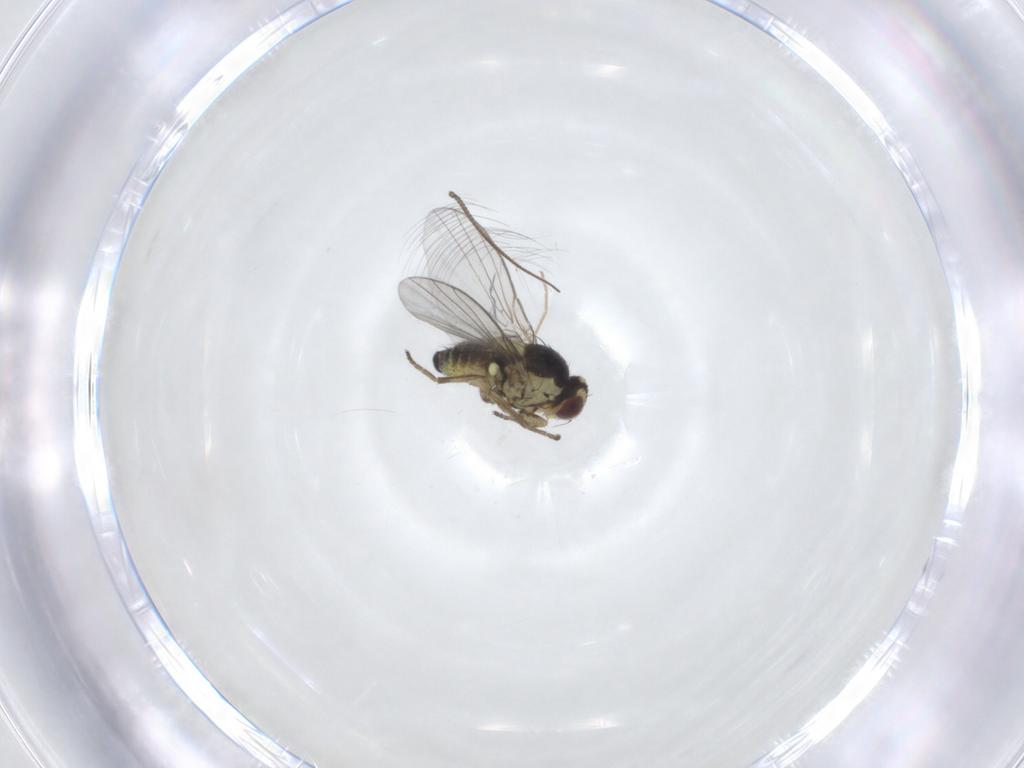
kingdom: Animalia
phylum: Arthropoda
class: Insecta
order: Diptera
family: Agromyzidae
